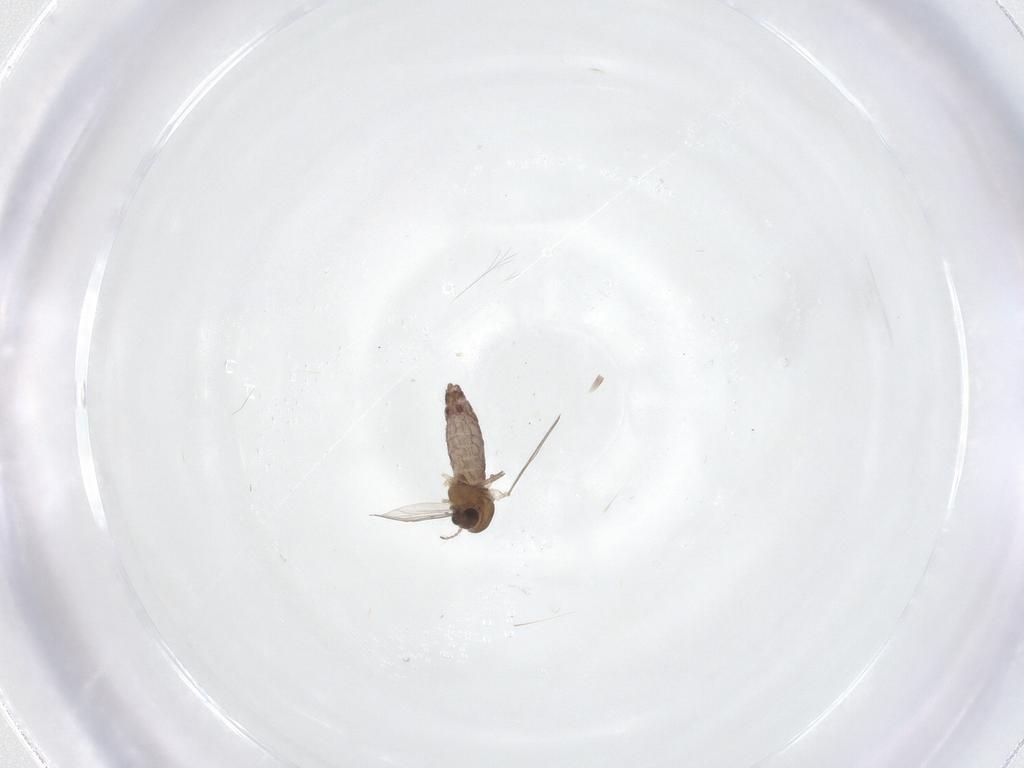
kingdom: Animalia
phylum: Arthropoda
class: Insecta
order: Diptera
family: Chironomidae
